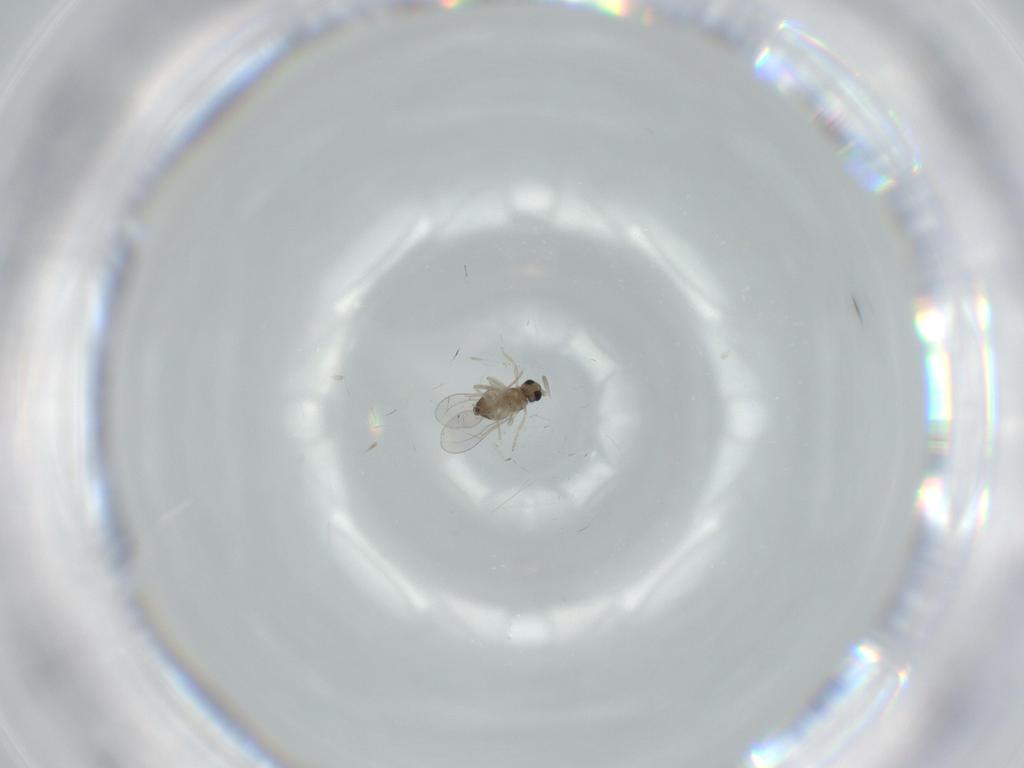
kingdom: Animalia
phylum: Arthropoda
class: Insecta
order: Diptera
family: Cecidomyiidae
